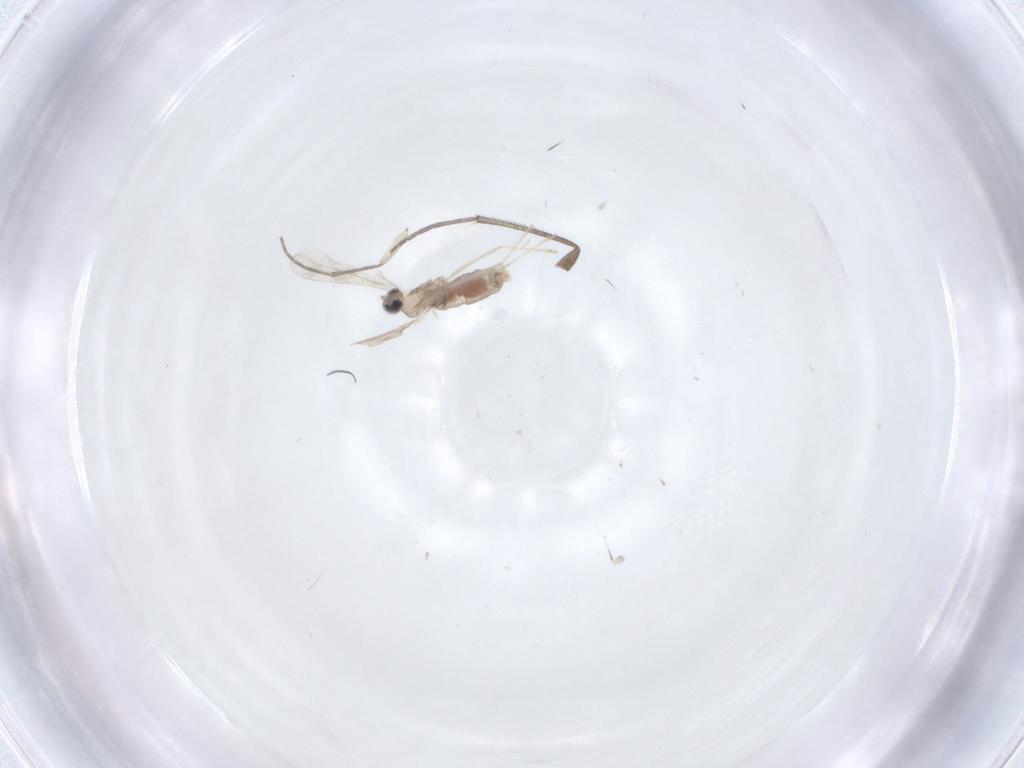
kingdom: Animalia
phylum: Arthropoda
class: Insecta
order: Diptera
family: Sciaridae
